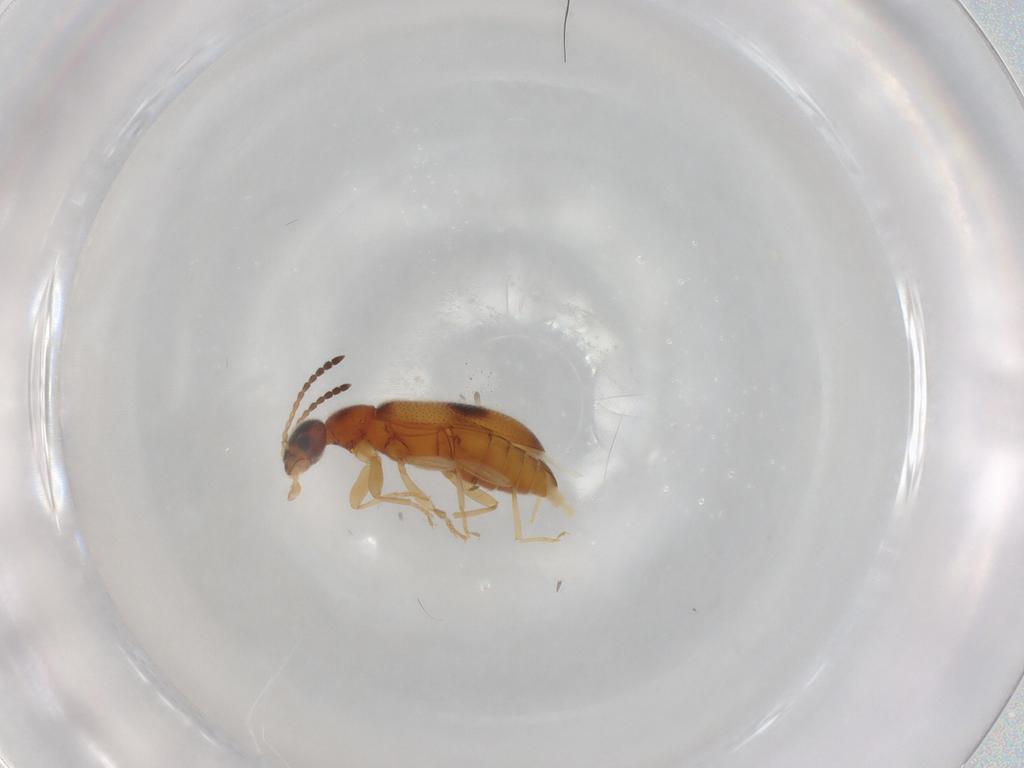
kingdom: Animalia
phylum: Arthropoda
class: Insecta
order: Coleoptera
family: Anthicidae
